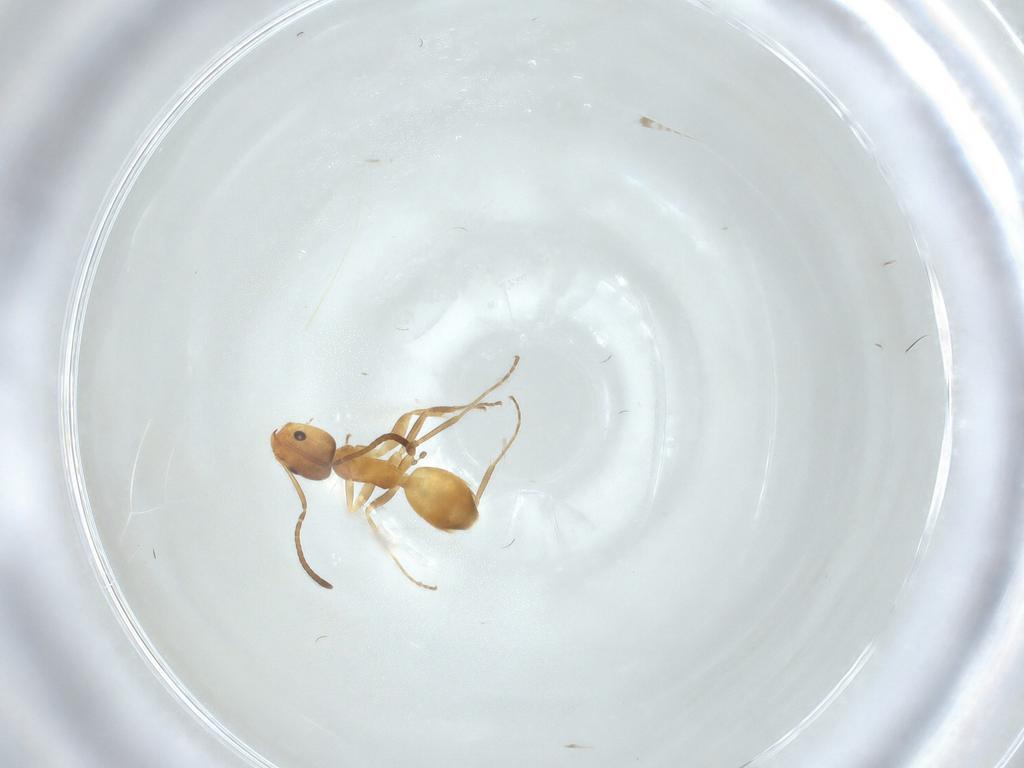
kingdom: Animalia
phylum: Arthropoda
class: Insecta
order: Hymenoptera
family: Formicidae
